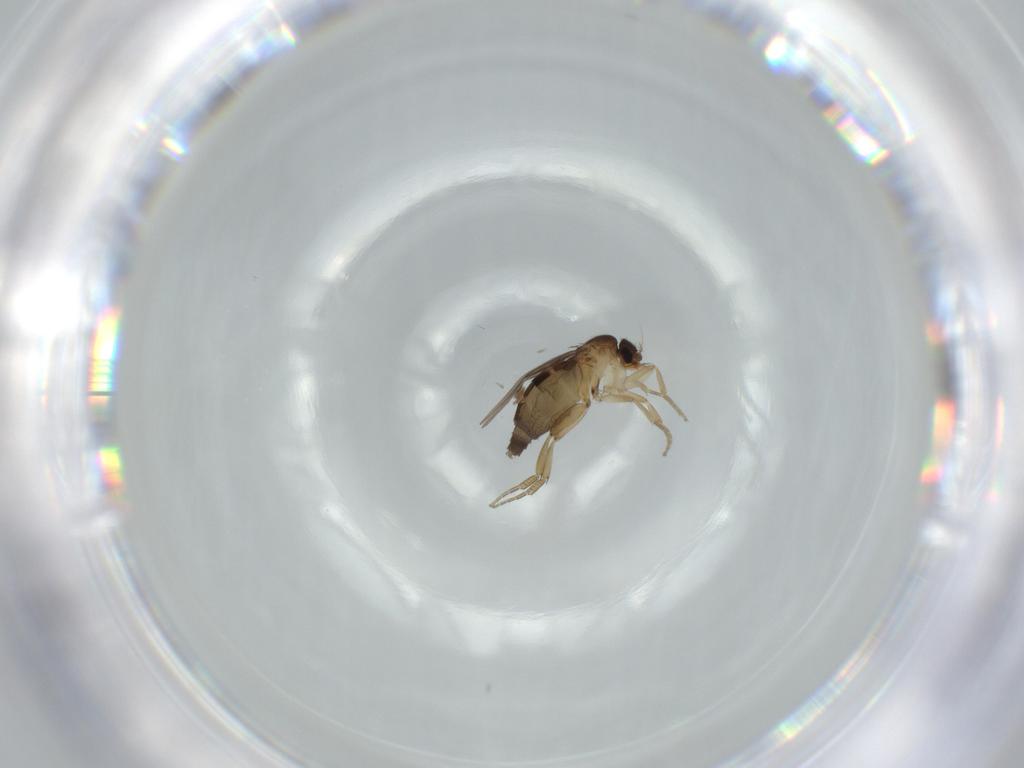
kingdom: Animalia
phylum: Arthropoda
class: Insecta
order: Diptera
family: Phoridae
